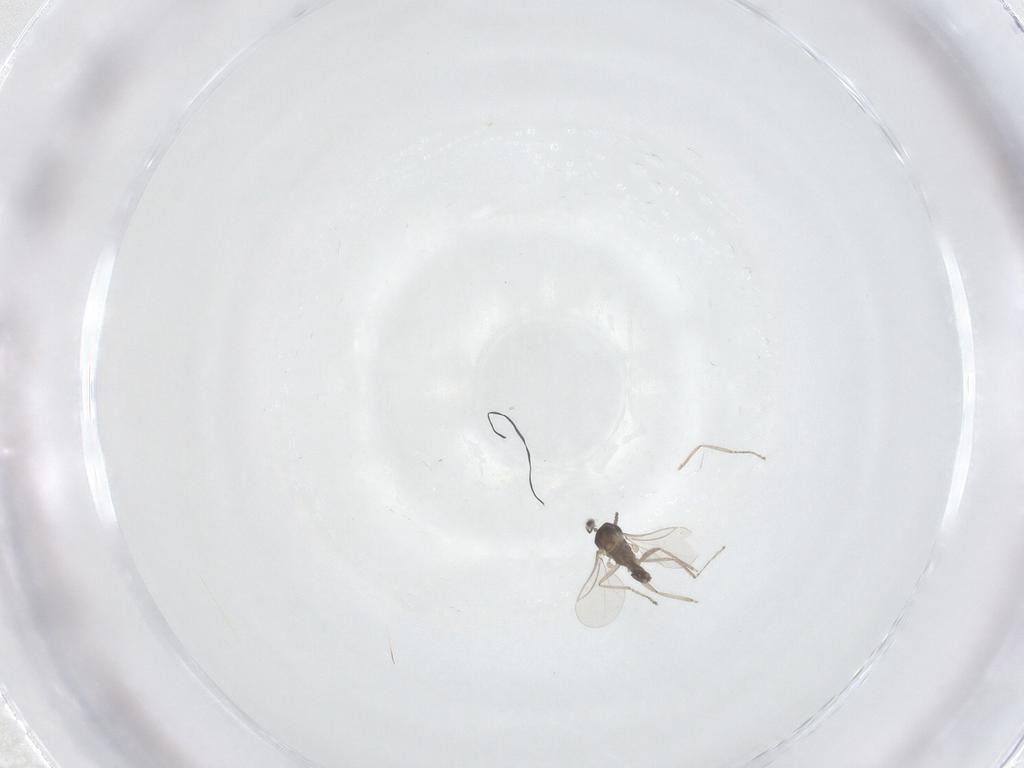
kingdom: Animalia
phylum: Arthropoda
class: Insecta
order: Diptera
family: Cecidomyiidae
